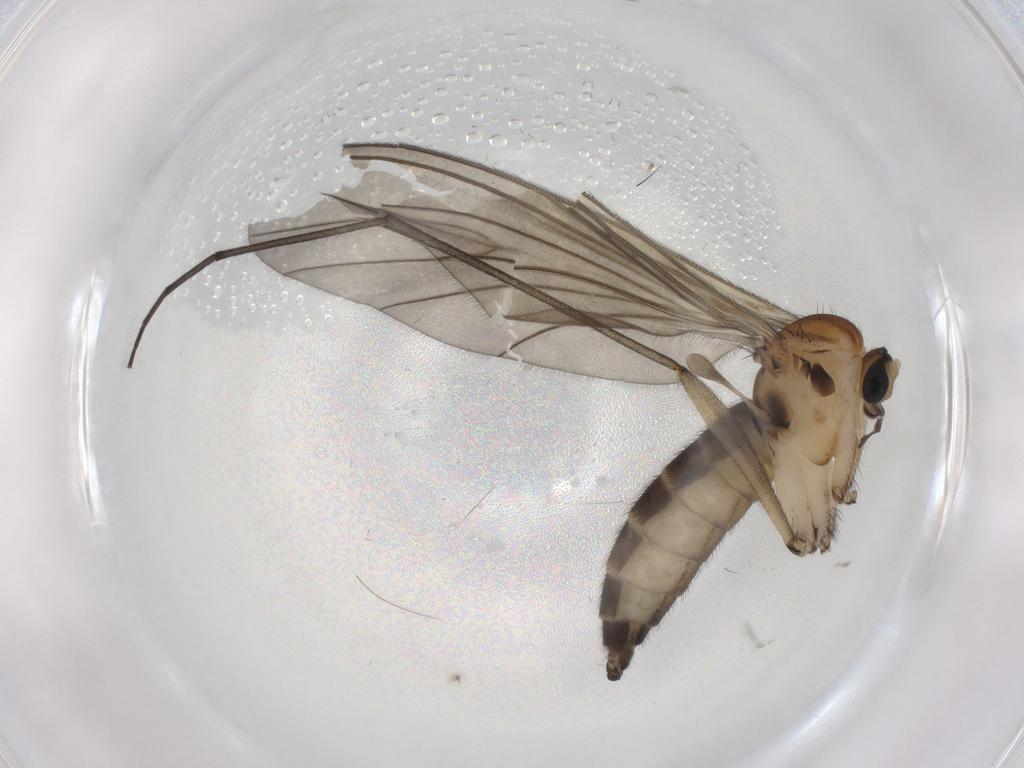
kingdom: Animalia
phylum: Arthropoda
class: Insecta
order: Diptera
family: Sciaridae
